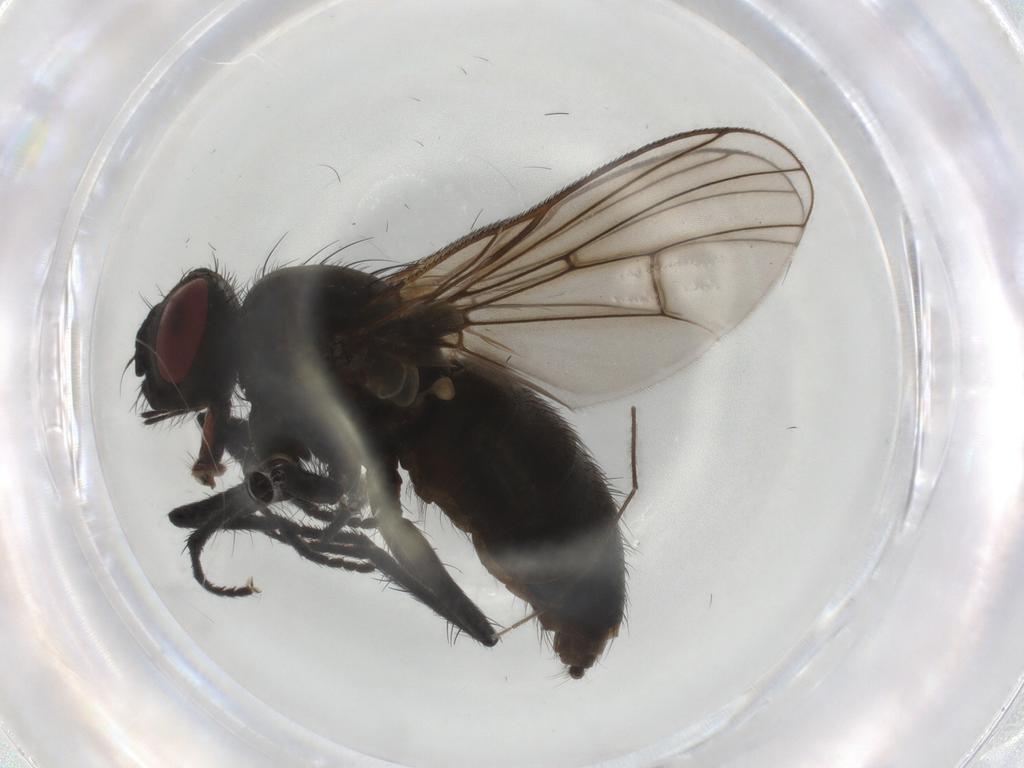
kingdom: Animalia
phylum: Arthropoda
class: Insecta
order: Diptera
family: Muscidae
